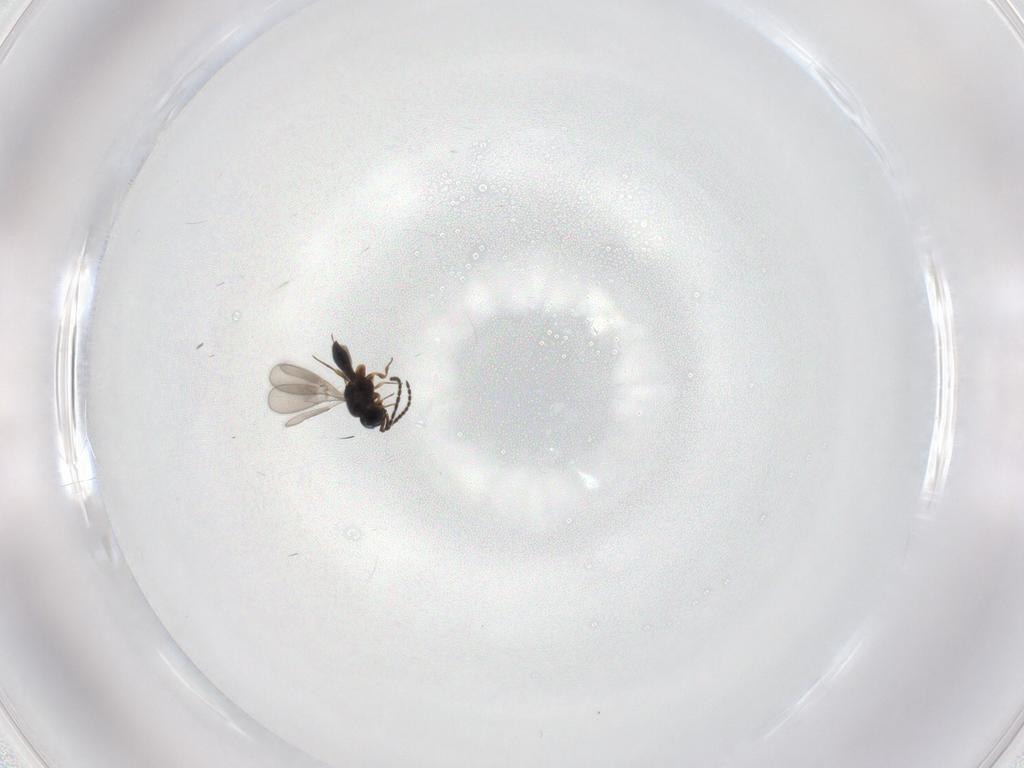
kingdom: Animalia
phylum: Arthropoda
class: Insecta
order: Hymenoptera
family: Scelionidae
